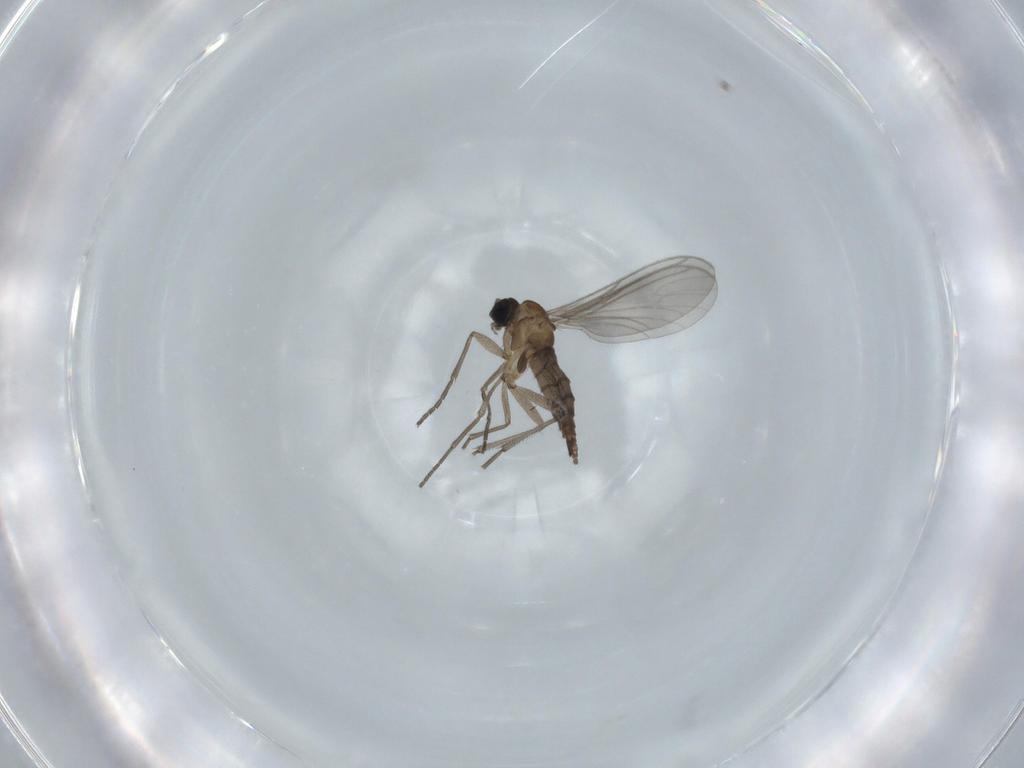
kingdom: Animalia
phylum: Arthropoda
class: Insecta
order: Diptera
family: Sciaridae
